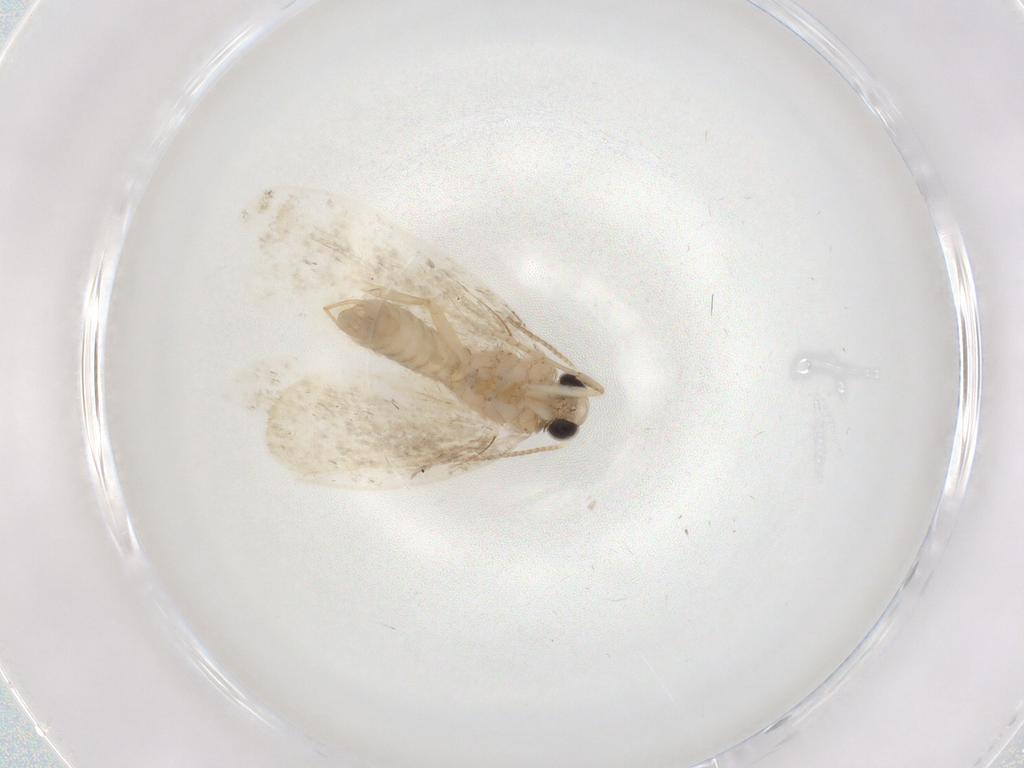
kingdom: Animalia
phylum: Arthropoda
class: Insecta
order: Lepidoptera
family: Psychidae
